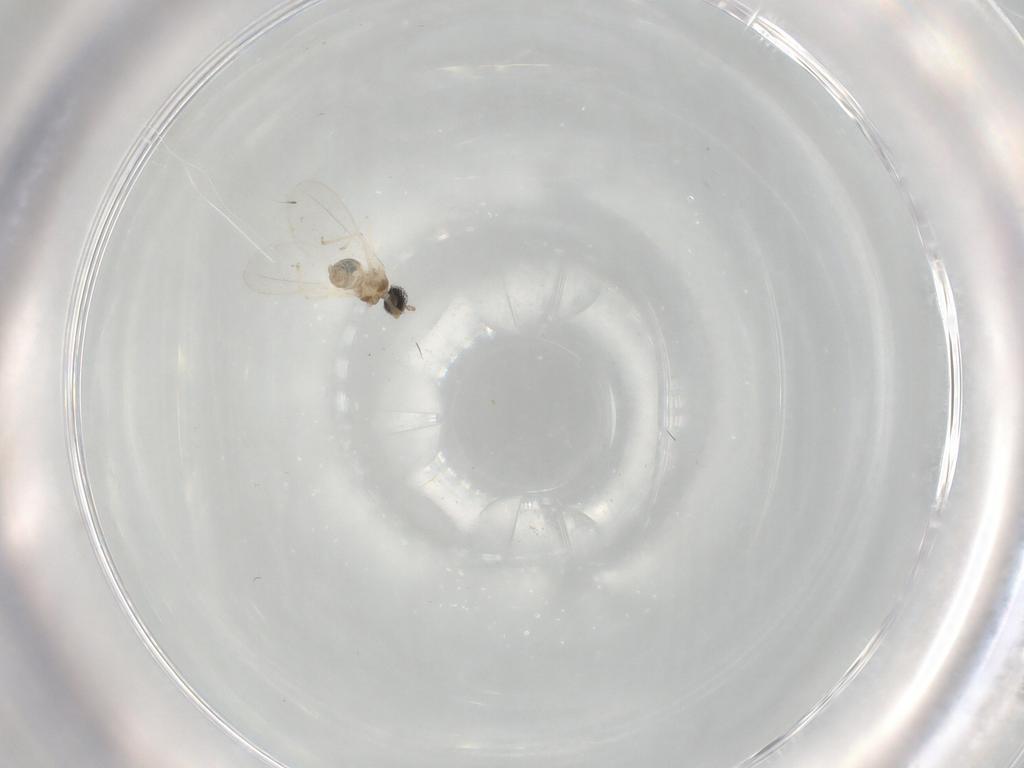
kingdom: Animalia
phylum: Arthropoda
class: Insecta
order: Diptera
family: Cecidomyiidae
